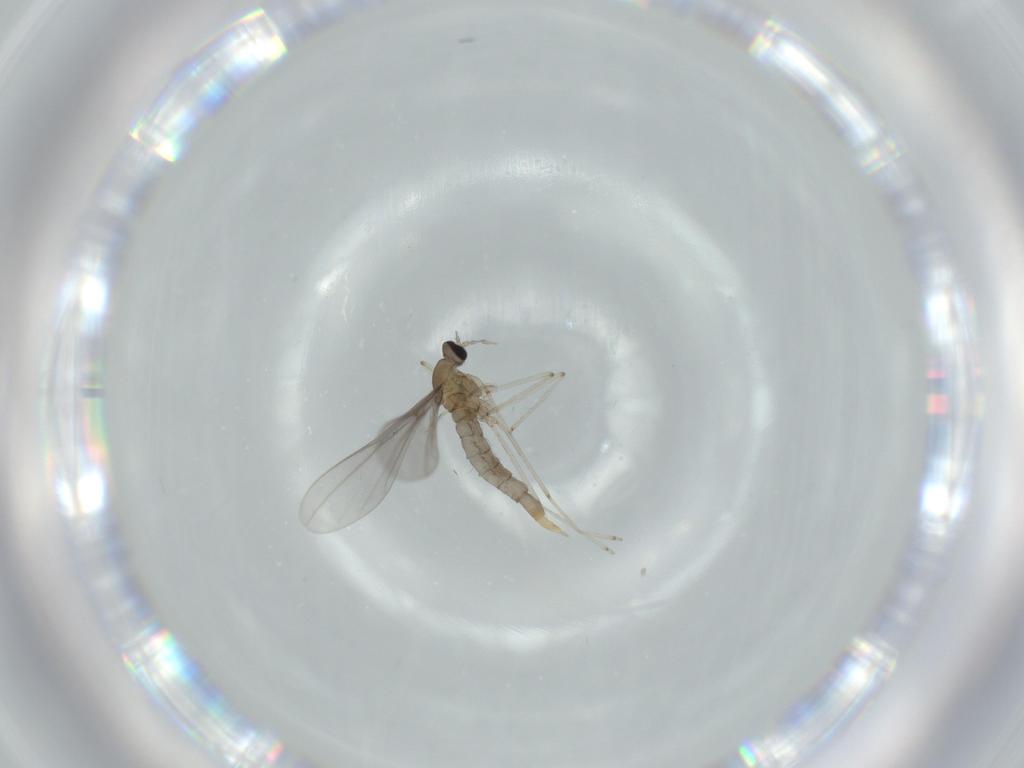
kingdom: Animalia
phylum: Arthropoda
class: Insecta
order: Diptera
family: Cecidomyiidae
